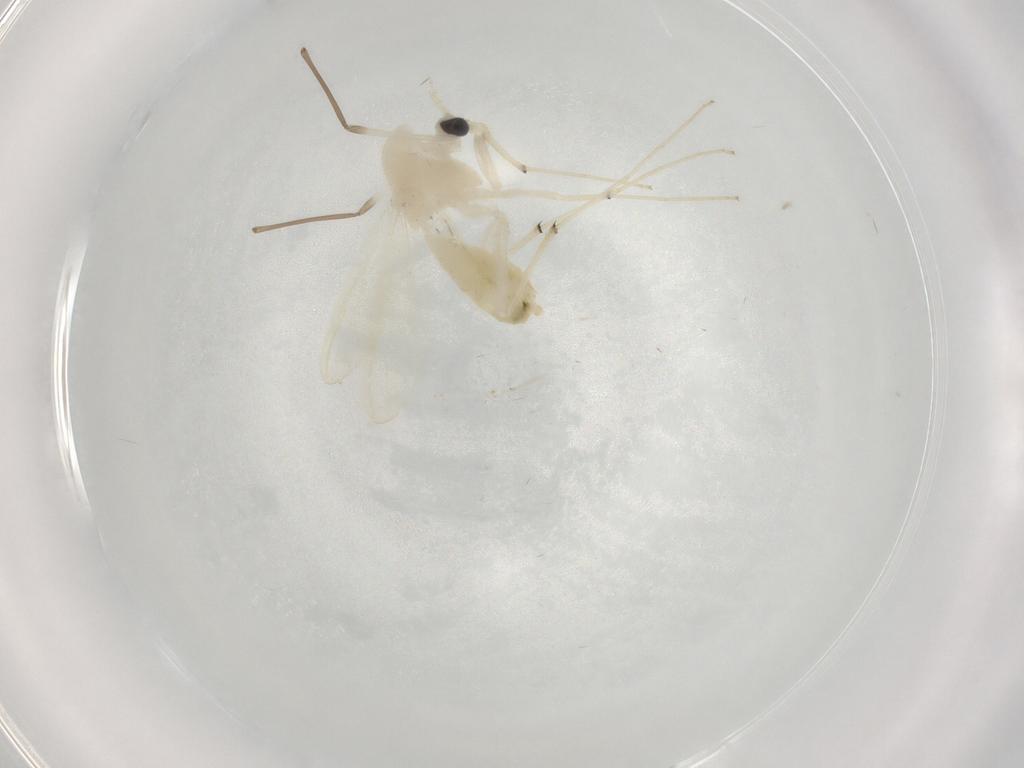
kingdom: Animalia
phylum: Arthropoda
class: Insecta
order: Diptera
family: Chironomidae
